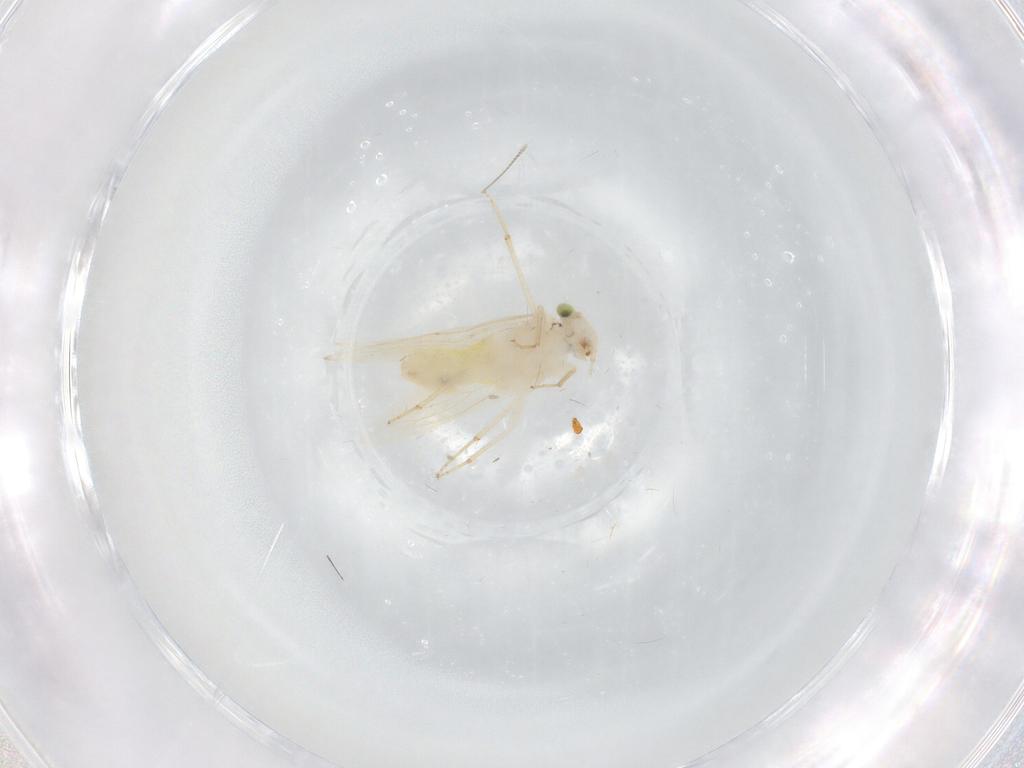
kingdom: Animalia
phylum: Arthropoda
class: Insecta
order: Psocodea
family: Lepidopsocidae
